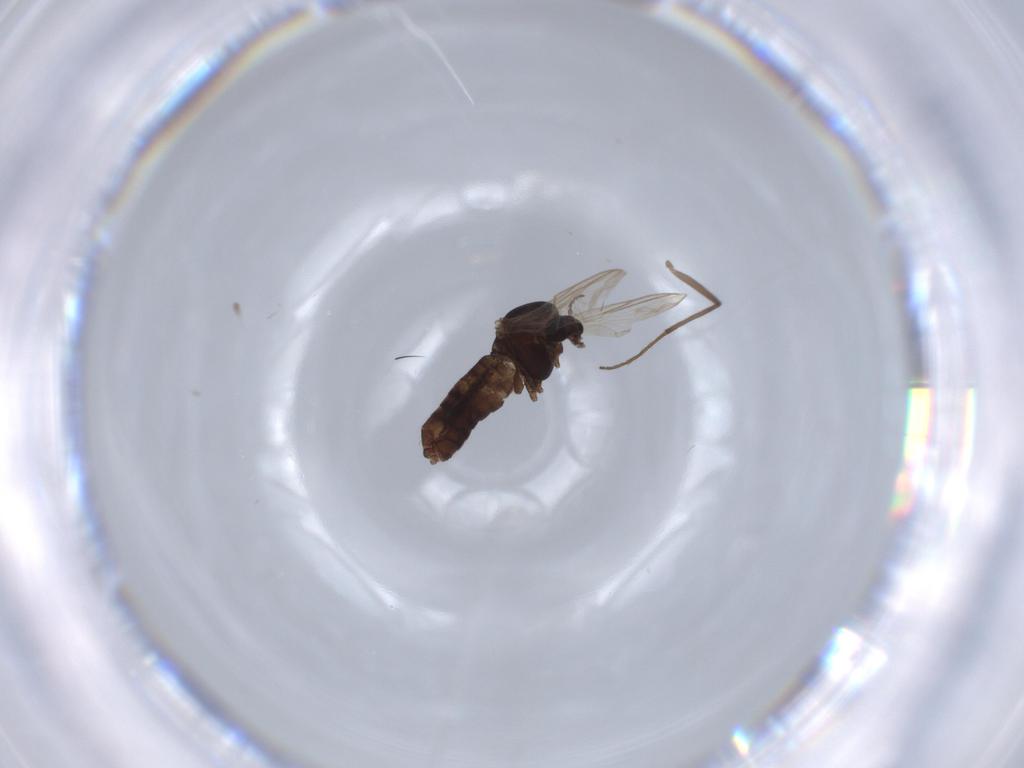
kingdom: Animalia
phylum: Arthropoda
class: Insecta
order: Diptera
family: Chironomidae
